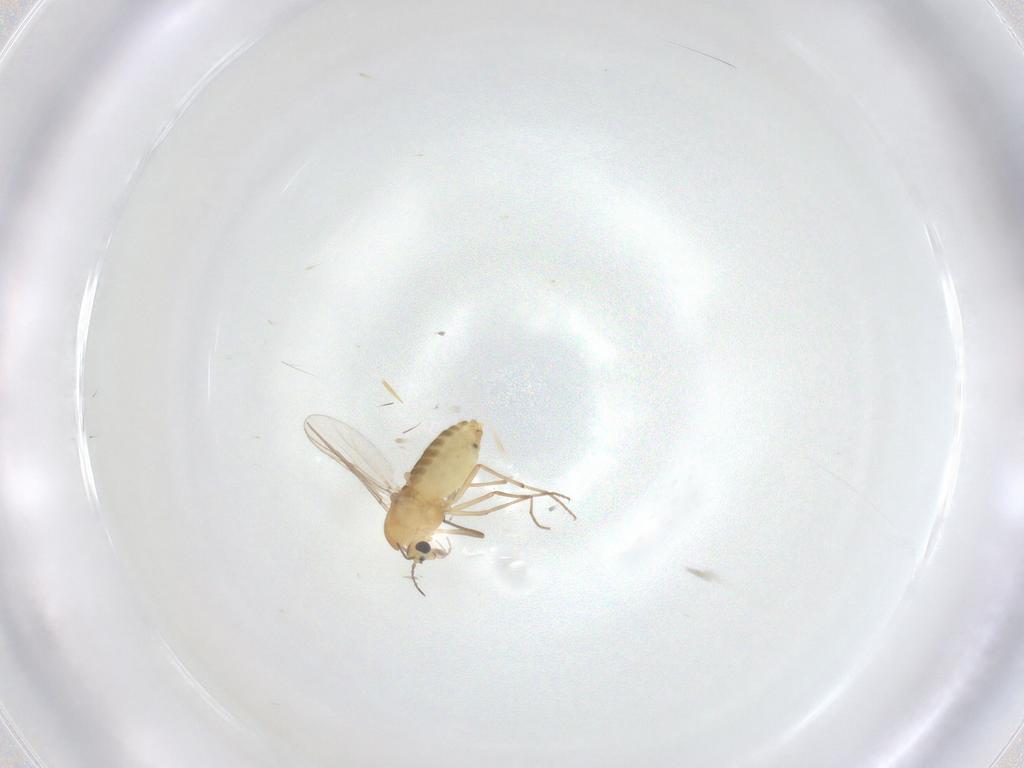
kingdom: Animalia
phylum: Arthropoda
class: Insecta
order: Diptera
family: Chironomidae
